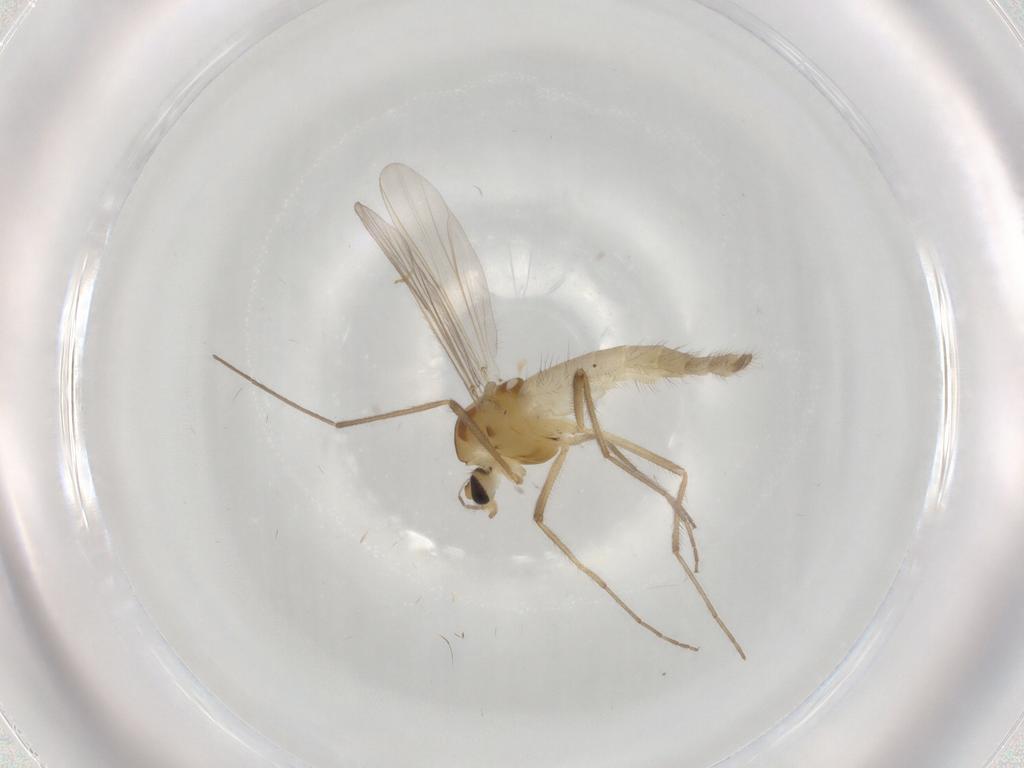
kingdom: Animalia
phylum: Arthropoda
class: Insecta
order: Diptera
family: Chironomidae
